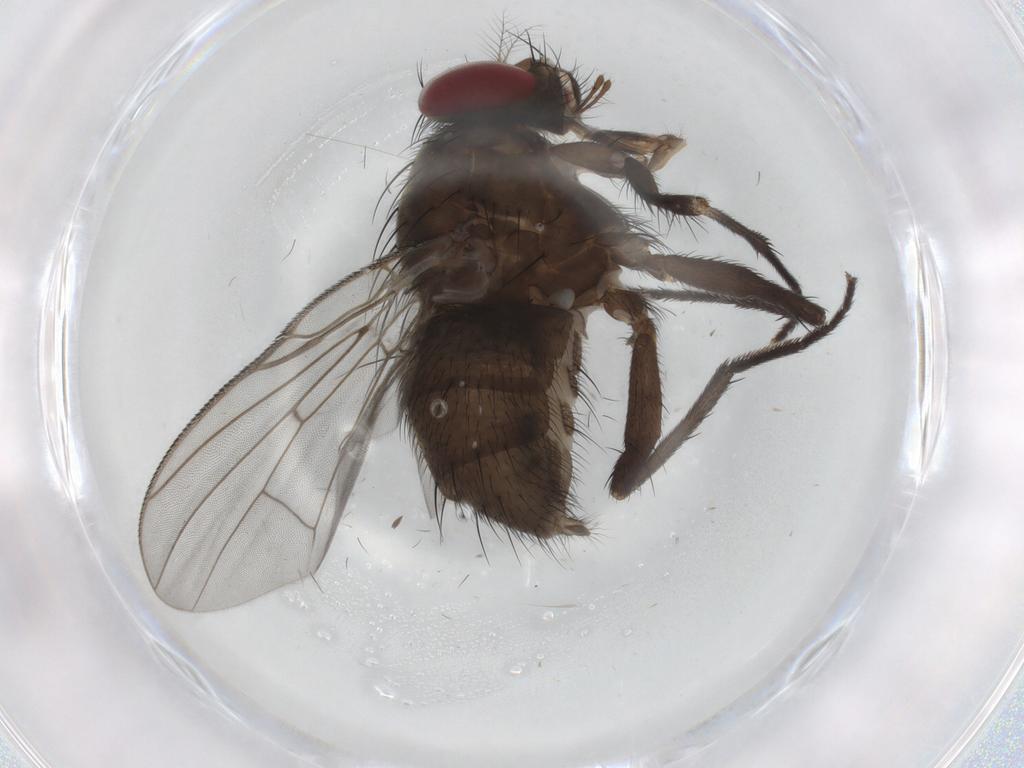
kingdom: Animalia
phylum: Arthropoda
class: Insecta
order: Diptera
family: Muscidae
